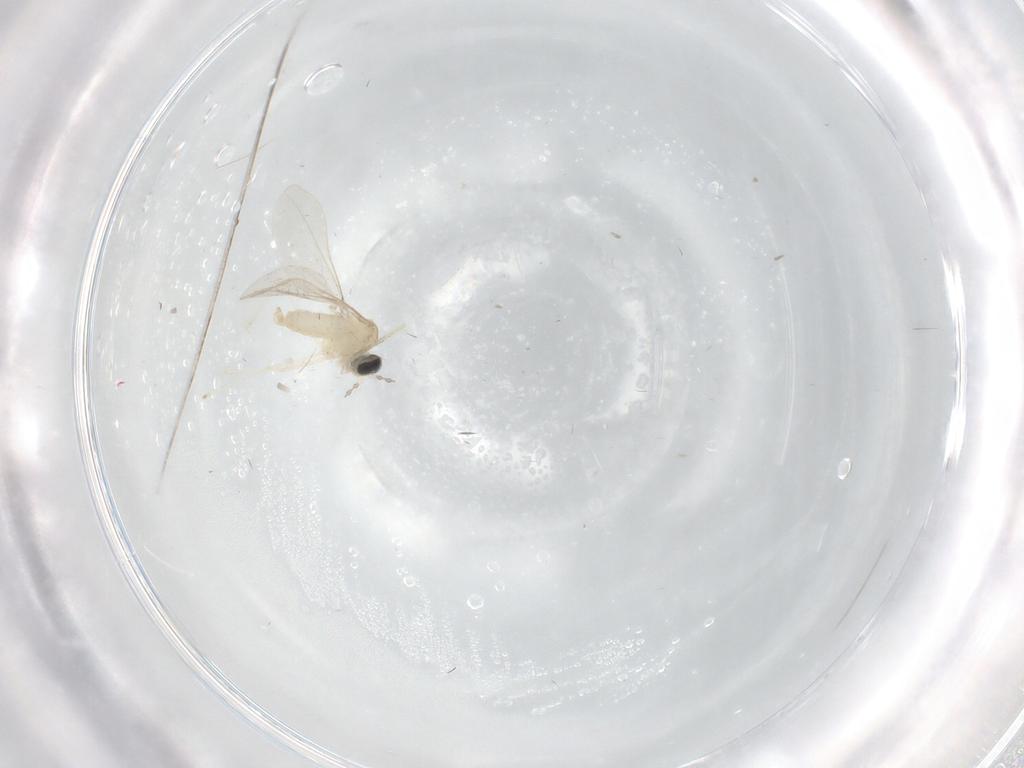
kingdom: Animalia
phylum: Arthropoda
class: Insecta
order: Diptera
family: Cecidomyiidae
